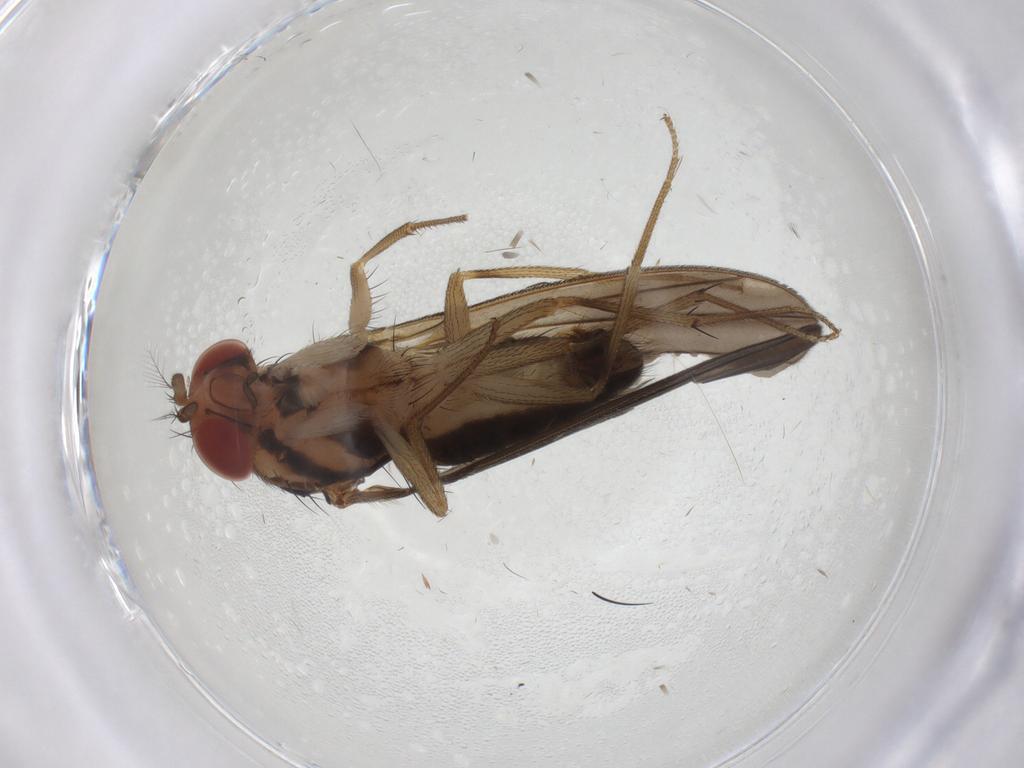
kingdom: Animalia
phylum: Arthropoda
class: Insecta
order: Diptera
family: Drosophilidae
